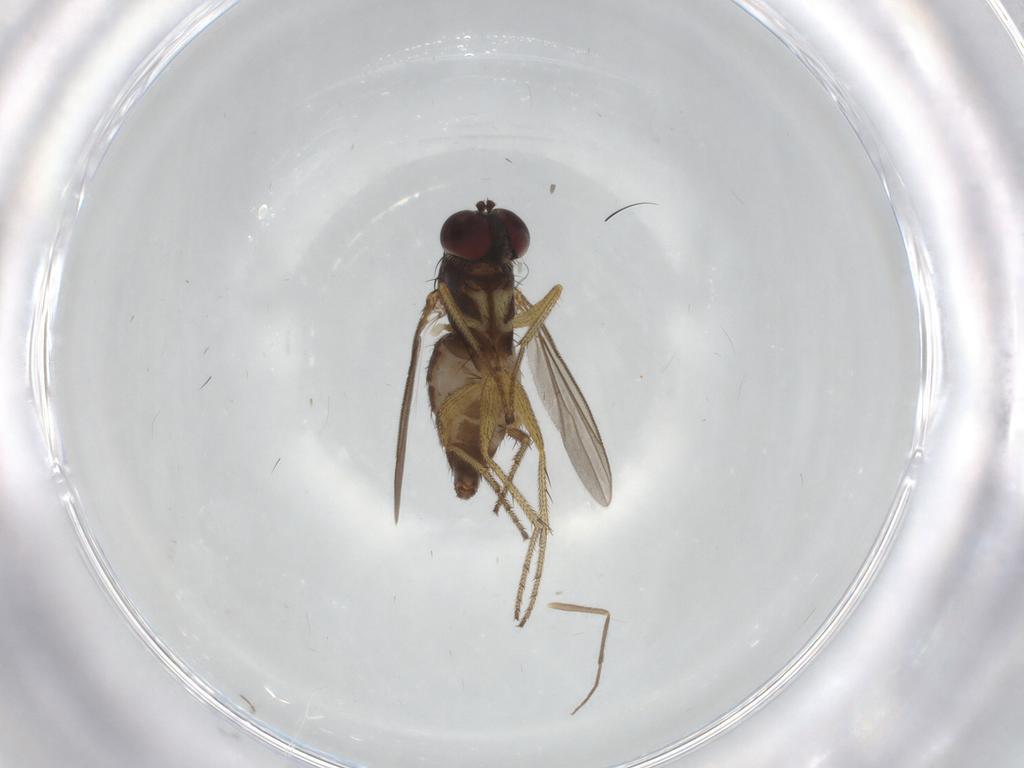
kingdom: Animalia
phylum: Arthropoda
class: Insecta
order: Diptera
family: Dolichopodidae
